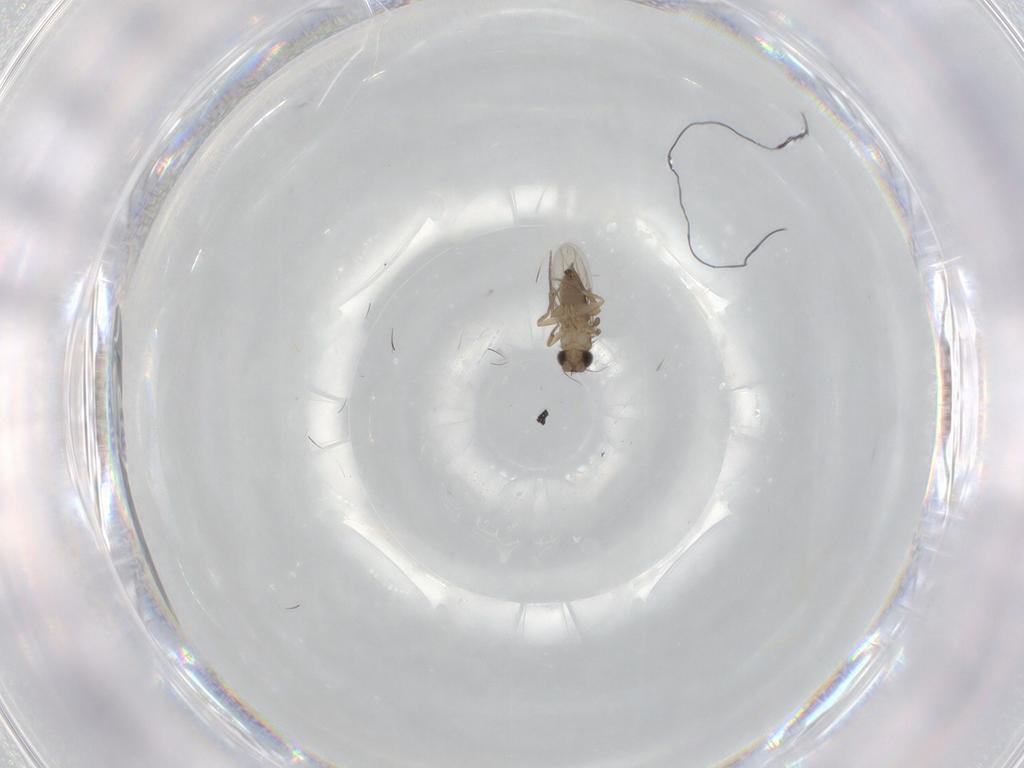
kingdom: Animalia
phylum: Arthropoda
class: Insecta
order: Diptera
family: Phoridae
